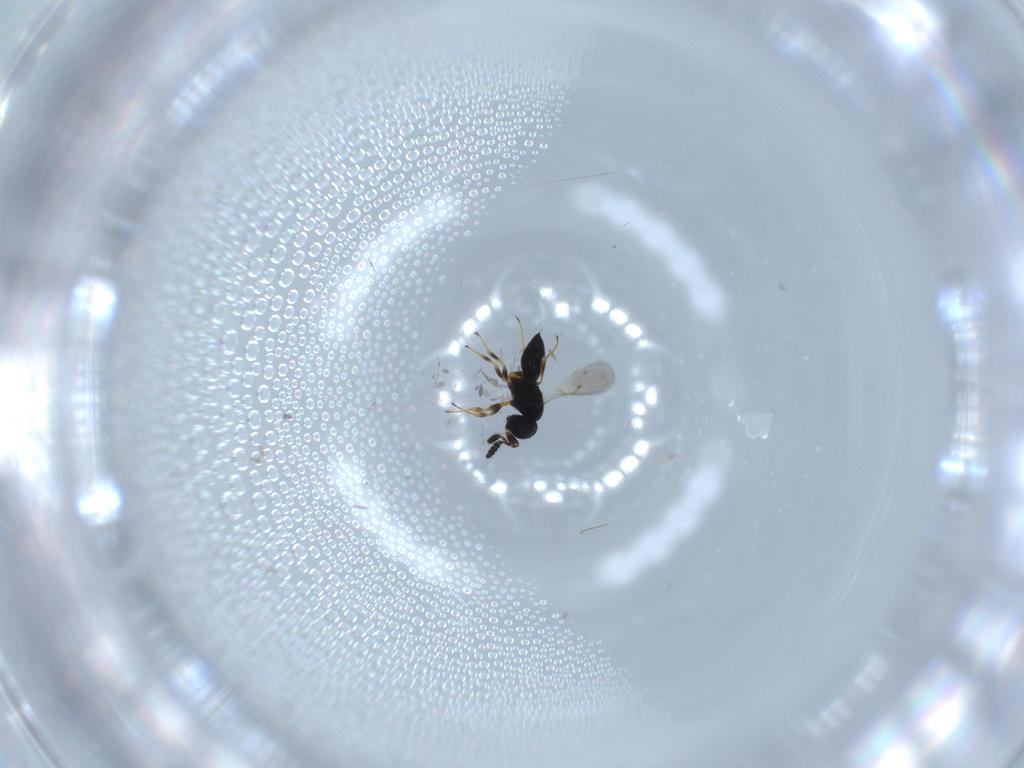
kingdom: Animalia
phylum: Arthropoda
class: Insecta
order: Hymenoptera
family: Scelionidae
